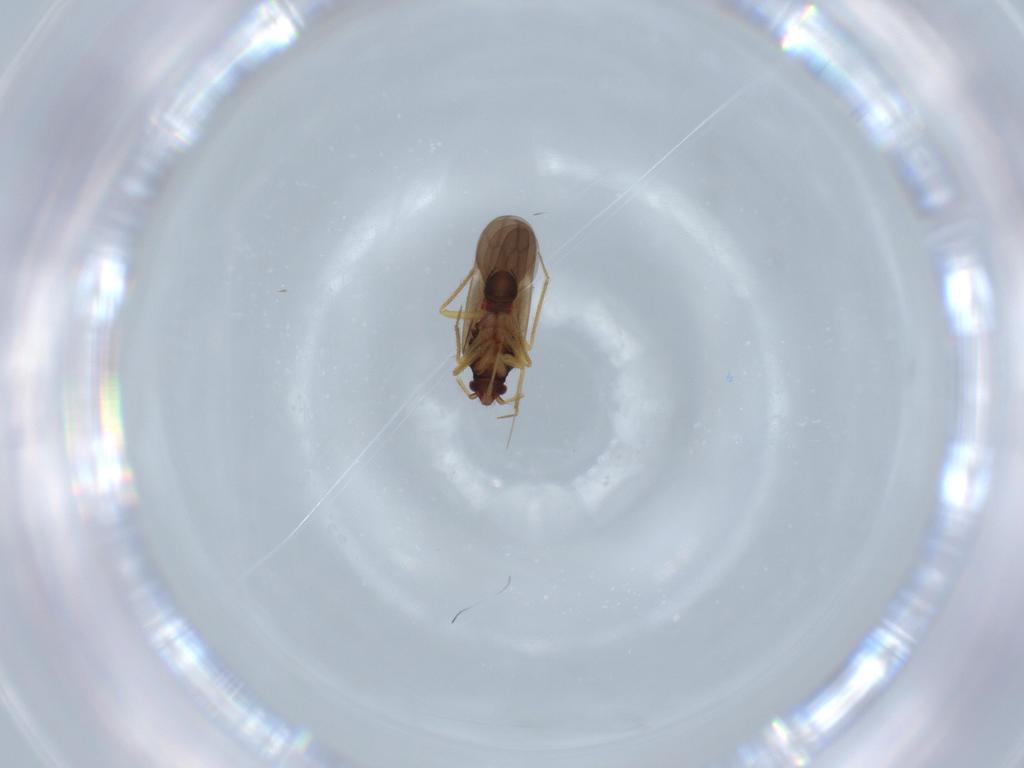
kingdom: Animalia
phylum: Arthropoda
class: Insecta
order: Hemiptera
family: Ceratocombidae
